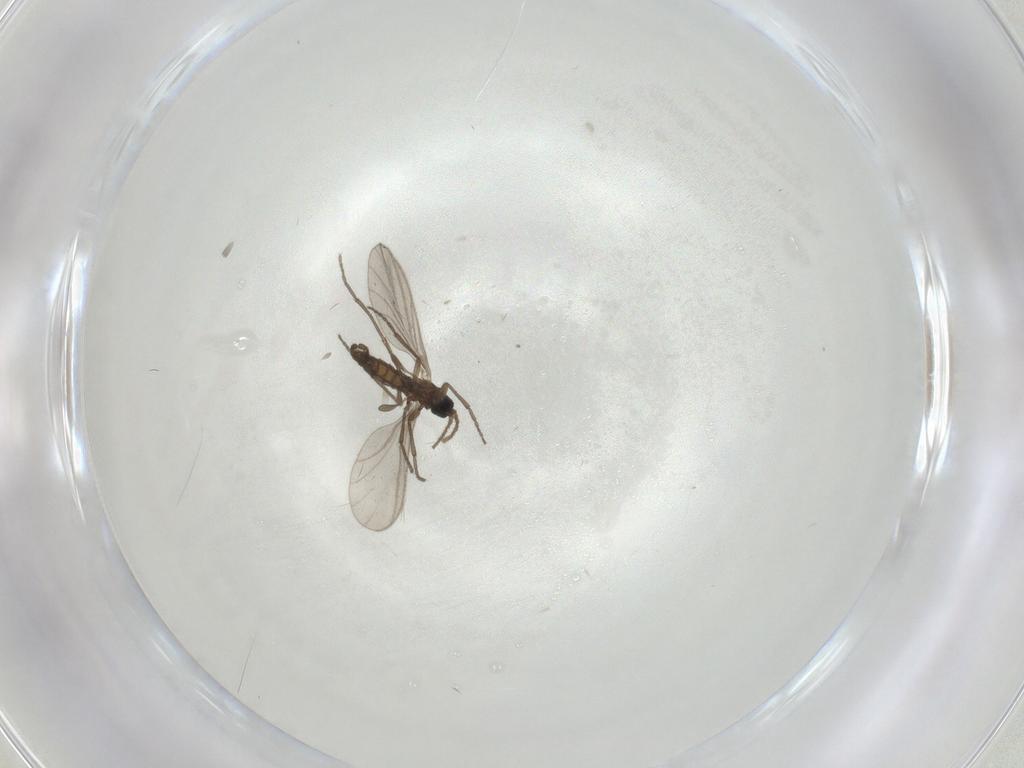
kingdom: Animalia
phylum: Arthropoda
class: Insecta
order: Diptera
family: Sciaridae
